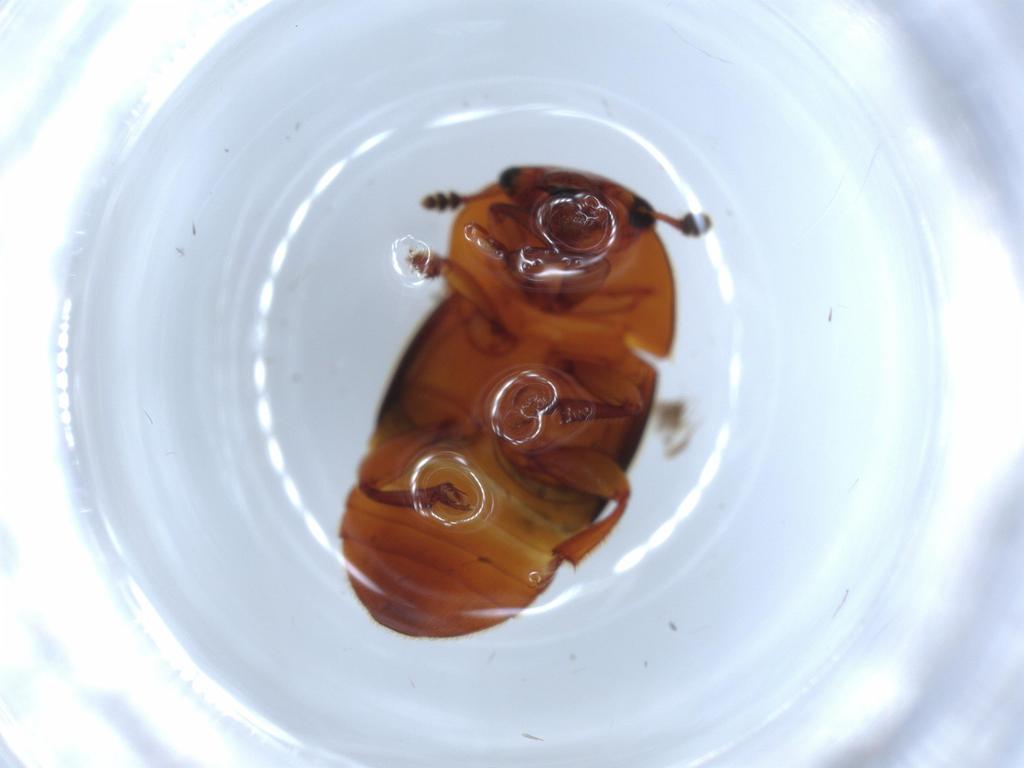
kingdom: Animalia
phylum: Arthropoda
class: Insecta
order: Coleoptera
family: Nitidulidae
